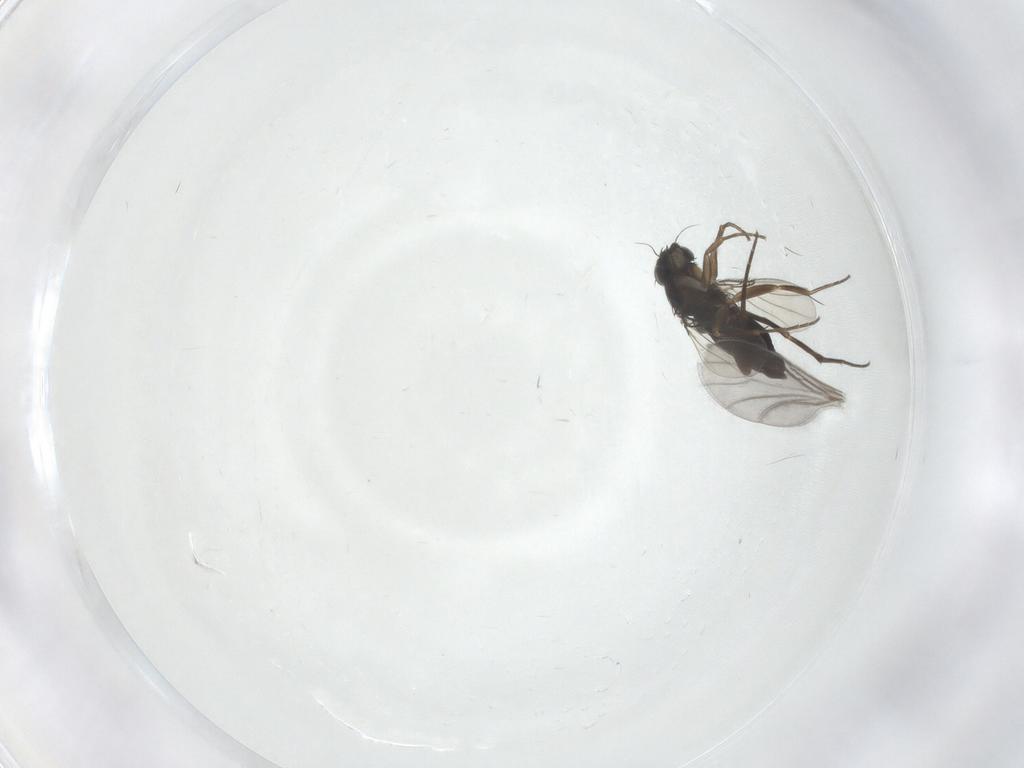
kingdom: Animalia
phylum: Arthropoda
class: Insecta
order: Diptera
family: Phoridae
